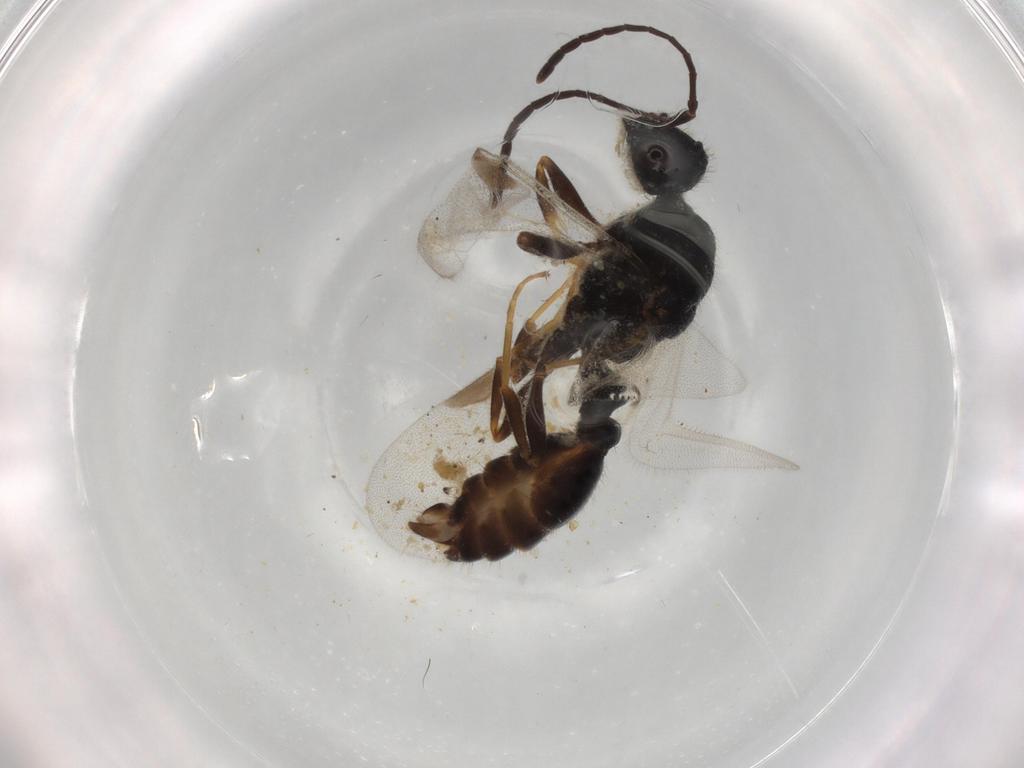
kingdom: Animalia
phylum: Arthropoda
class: Insecta
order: Hymenoptera
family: Formicidae
